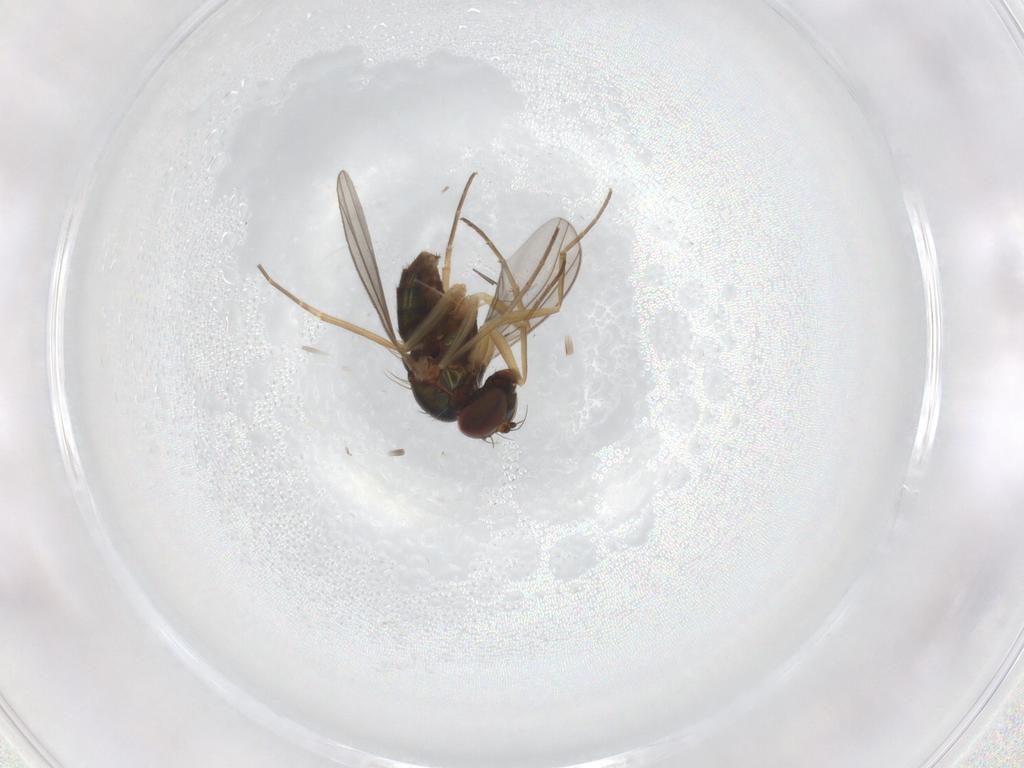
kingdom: Animalia
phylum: Arthropoda
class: Insecta
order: Diptera
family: Dolichopodidae
